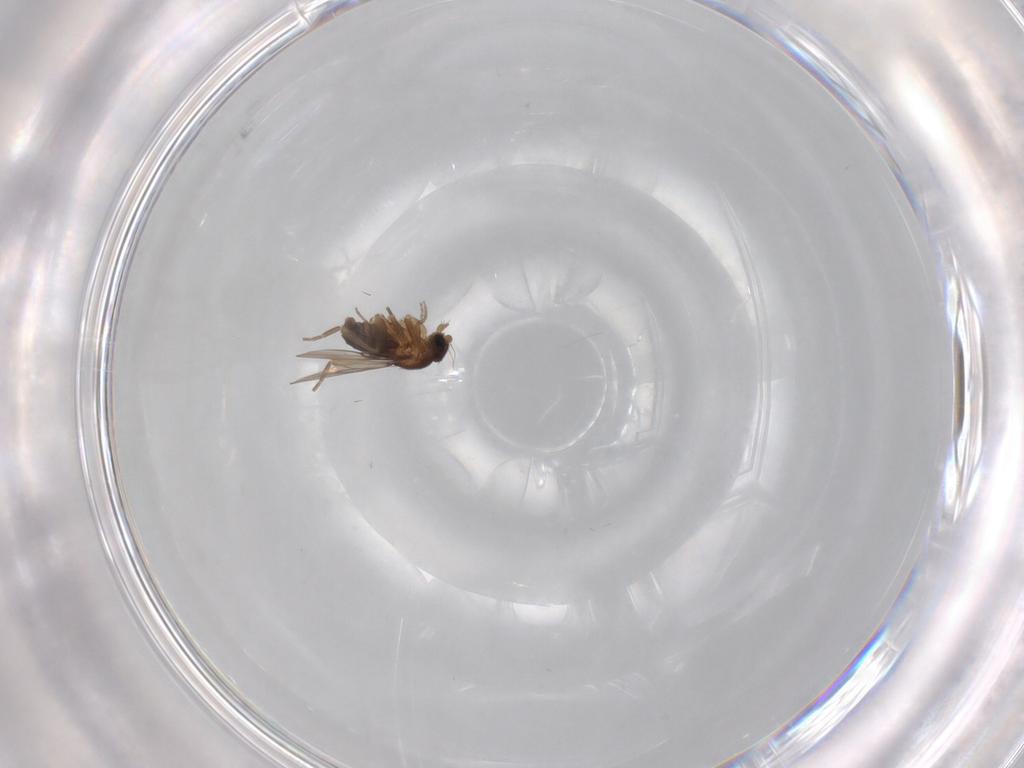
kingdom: Animalia
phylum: Arthropoda
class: Insecta
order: Diptera
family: Phoridae
